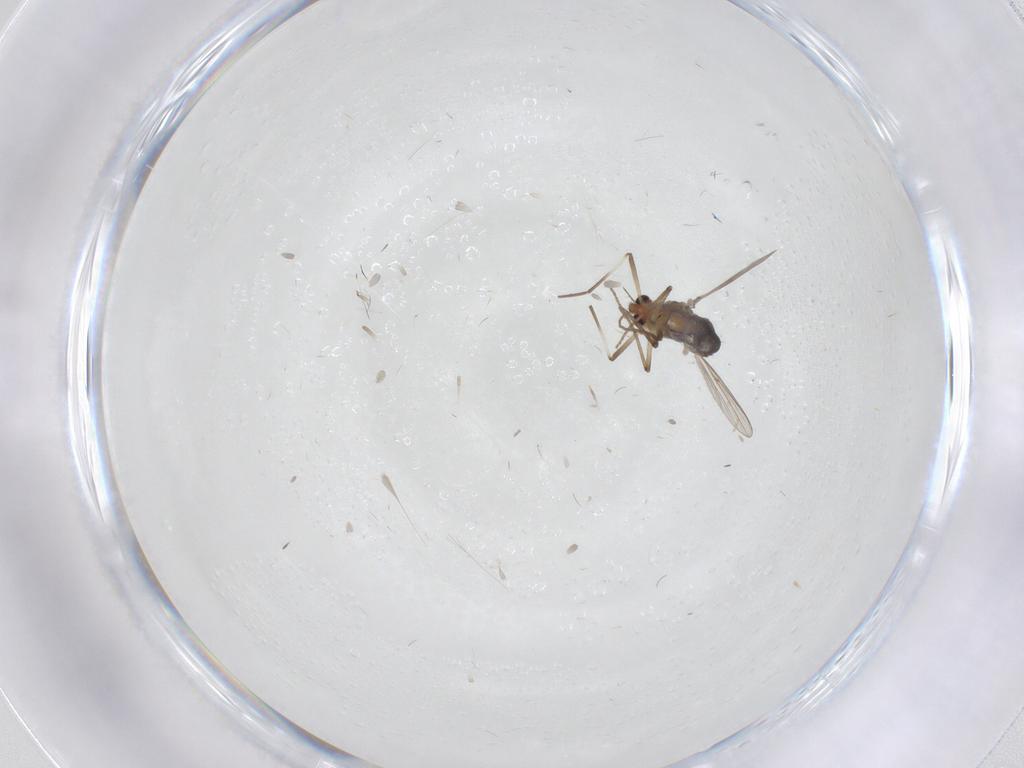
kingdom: Animalia
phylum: Arthropoda
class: Insecta
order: Diptera
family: Cecidomyiidae
